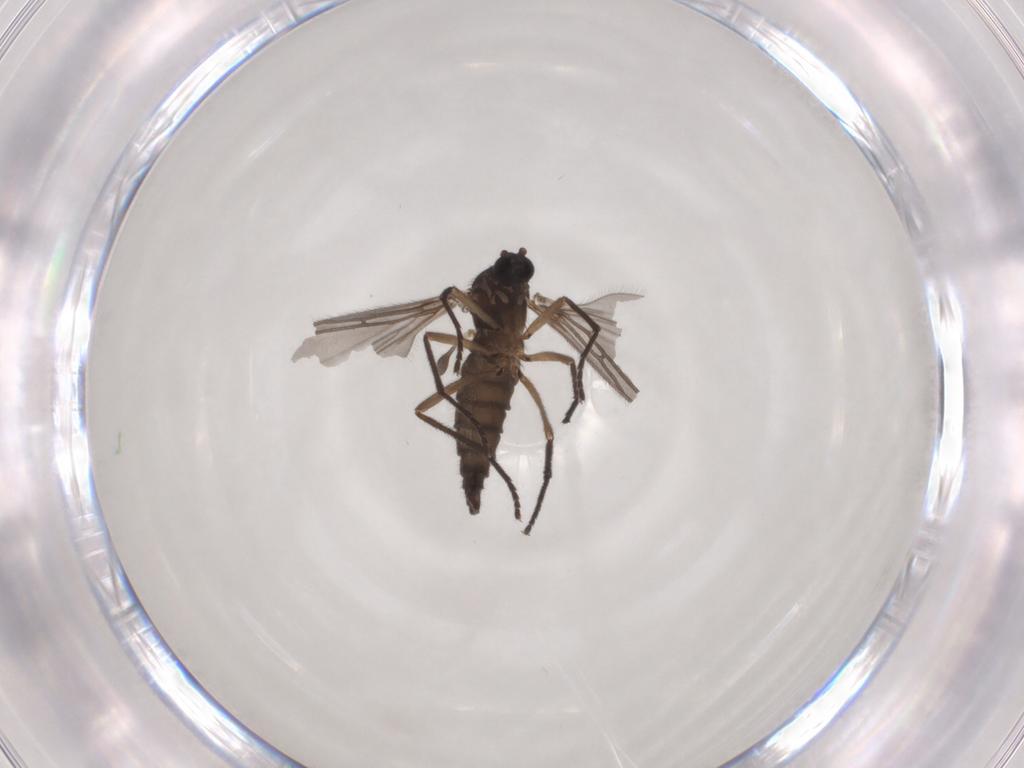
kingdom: Animalia
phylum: Arthropoda
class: Insecta
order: Diptera
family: Sciaridae
